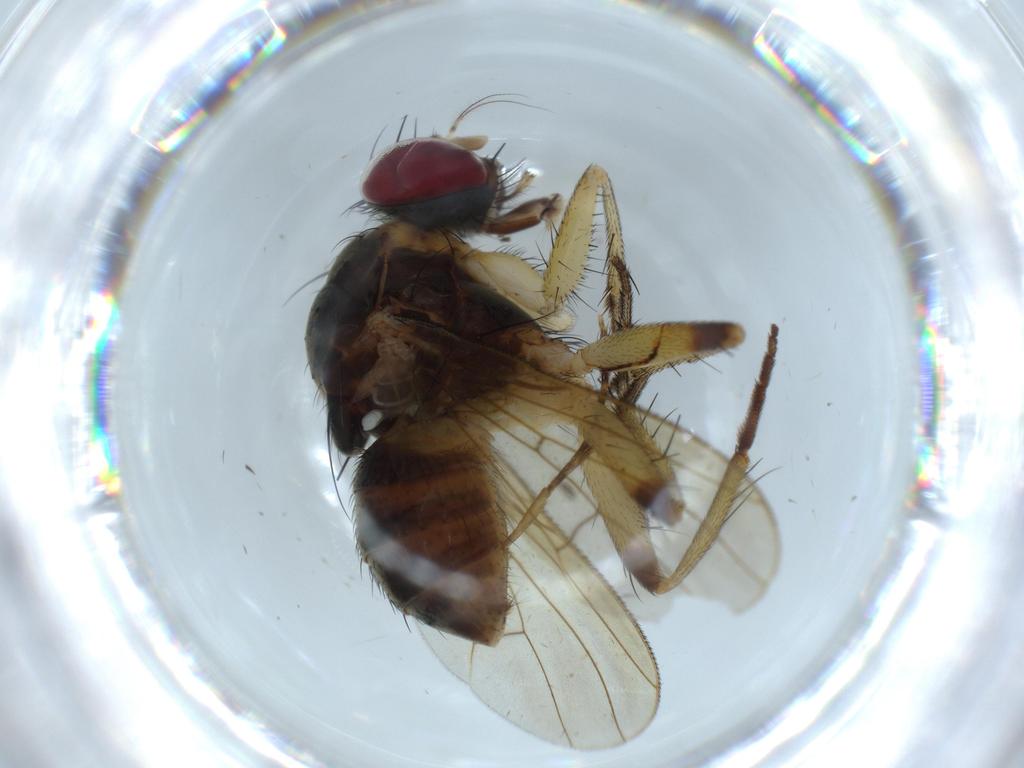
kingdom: Animalia
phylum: Arthropoda
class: Insecta
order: Diptera
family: Muscidae
